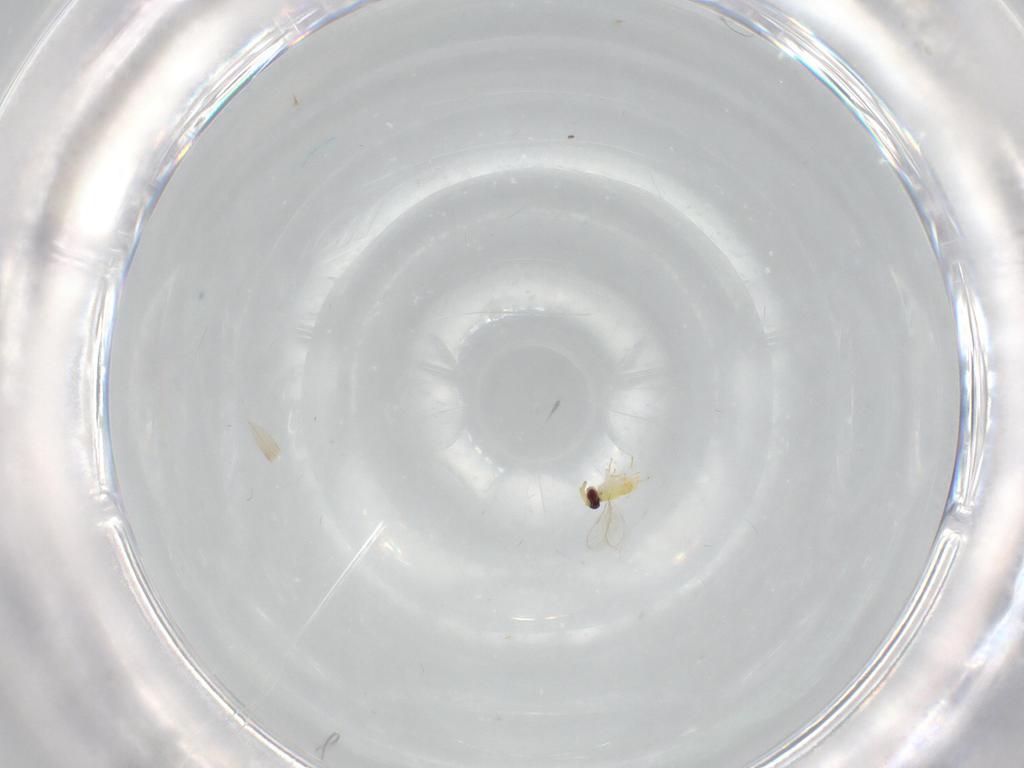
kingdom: Animalia
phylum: Arthropoda
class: Insecta
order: Hymenoptera
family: Aphelinidae
